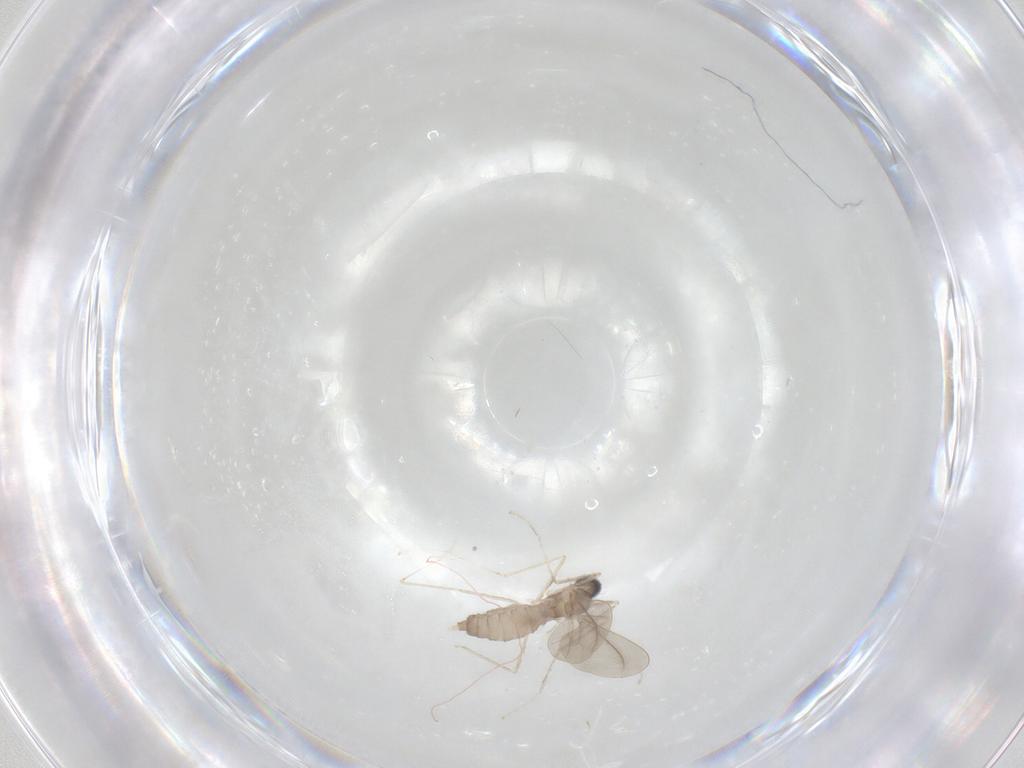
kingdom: Animalia
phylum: Arthropoda
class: Insecta
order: Diptera
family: Cecidomyiidae
